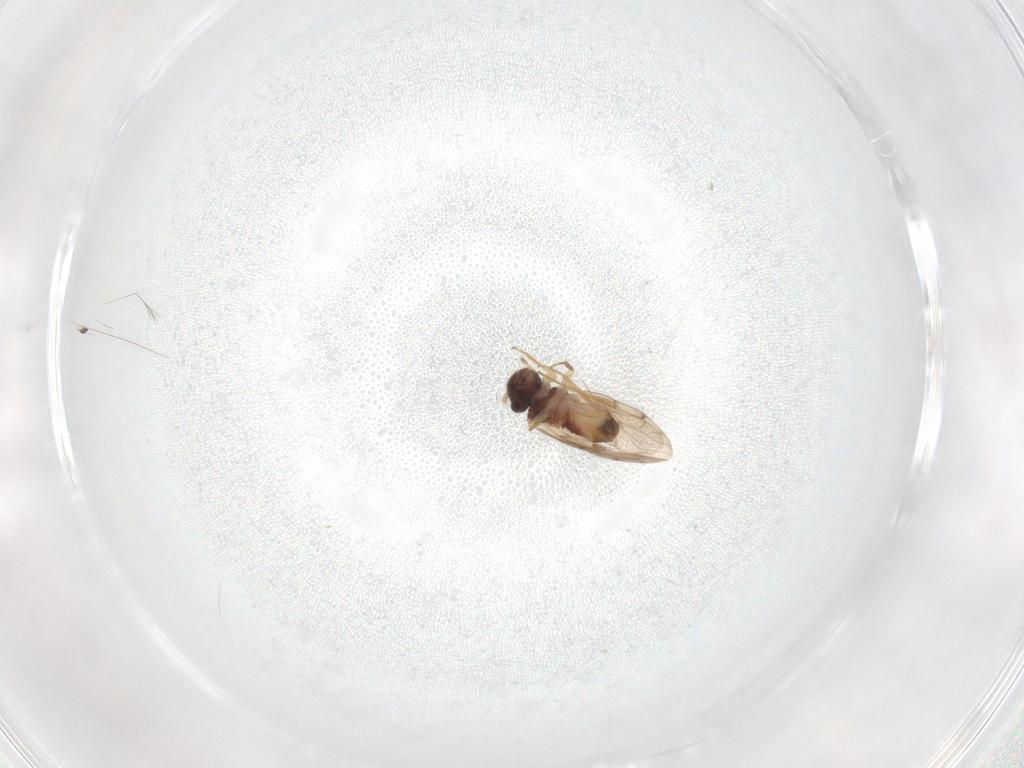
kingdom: Animalia
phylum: Arthropoda
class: Insecta
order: Psocodea
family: Peripsocidae
